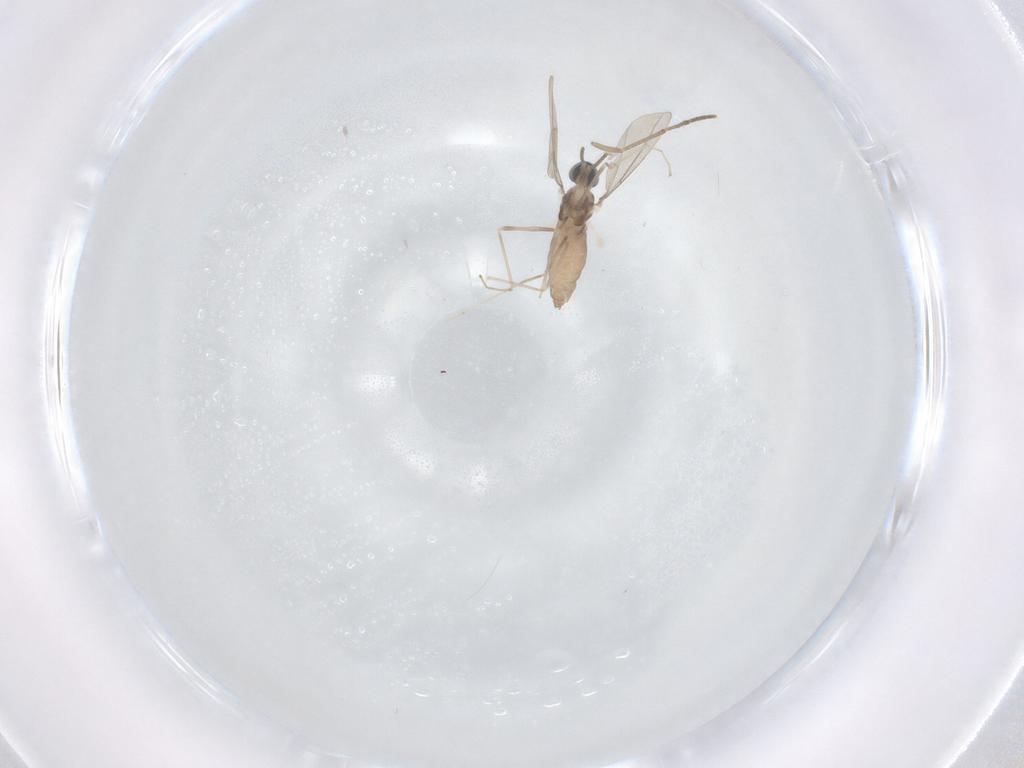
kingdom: Animalia
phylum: Arthropoda
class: Insecta
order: Diptera
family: Cecidomyiidae
